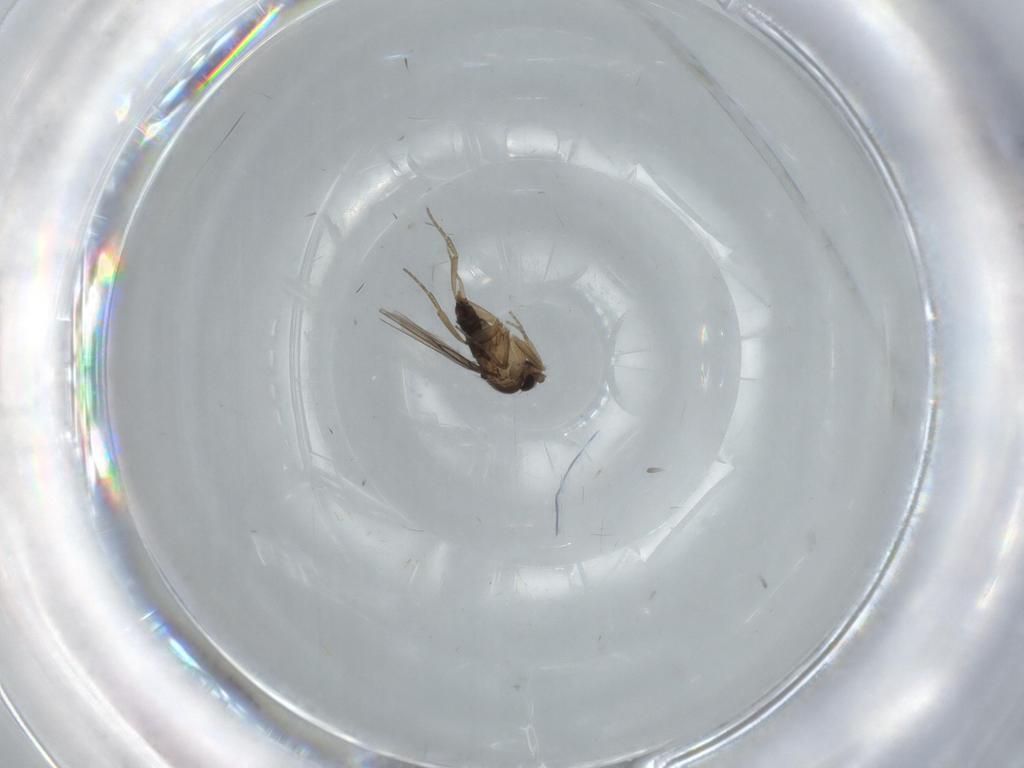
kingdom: Animalia
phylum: Arthropoda
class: Insecta
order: Diptera
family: Phoridae
